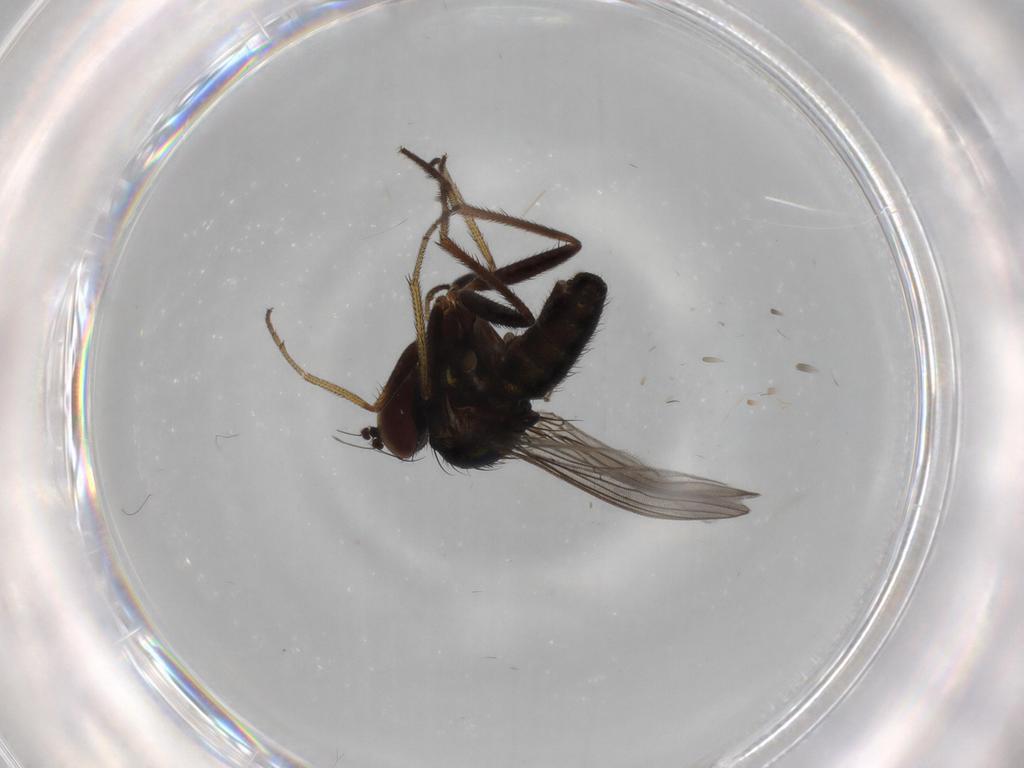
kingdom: Animalia
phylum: Arthropoda
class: Insecta
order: Diptera
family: Dolichopodidae
